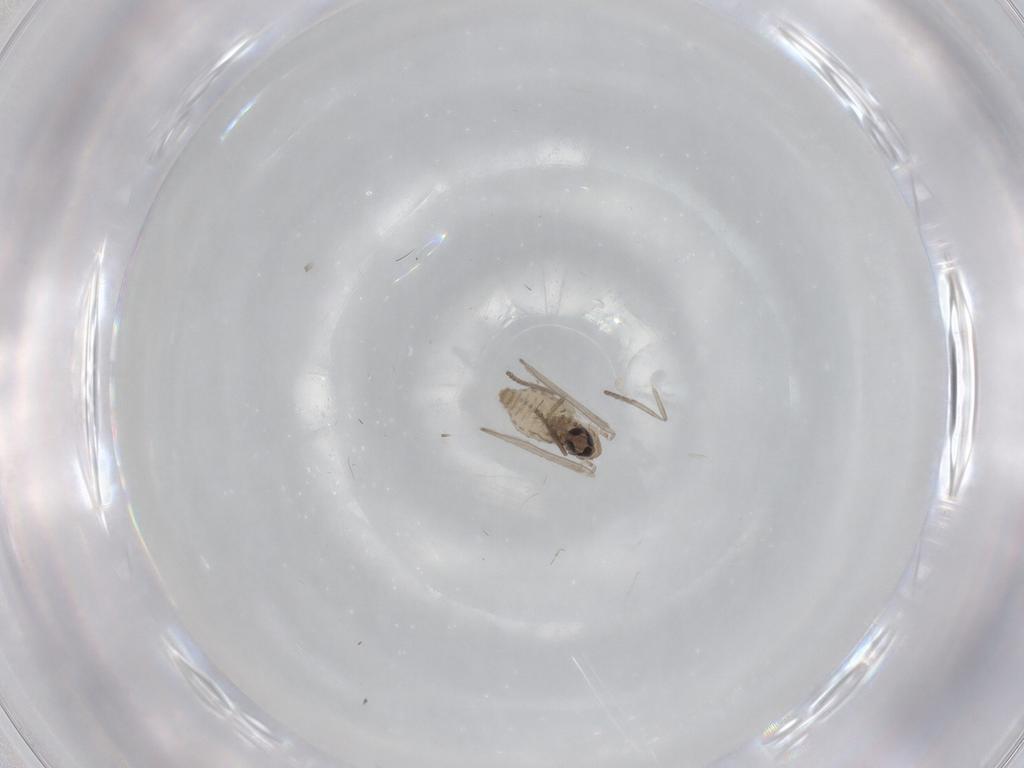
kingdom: Animalia
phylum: Arthropoda
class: Insecta
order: Diptera
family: Psychodidae
